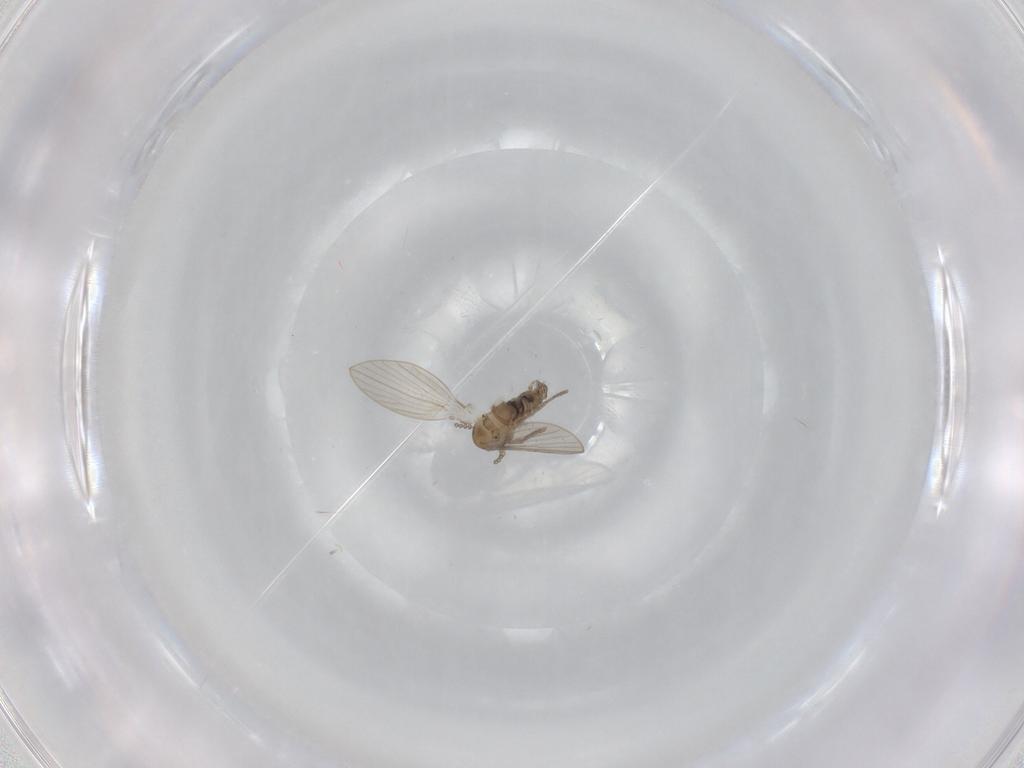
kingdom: Animalia
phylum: Arthropoda
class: Insecta
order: Diptera
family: Psychodidae
